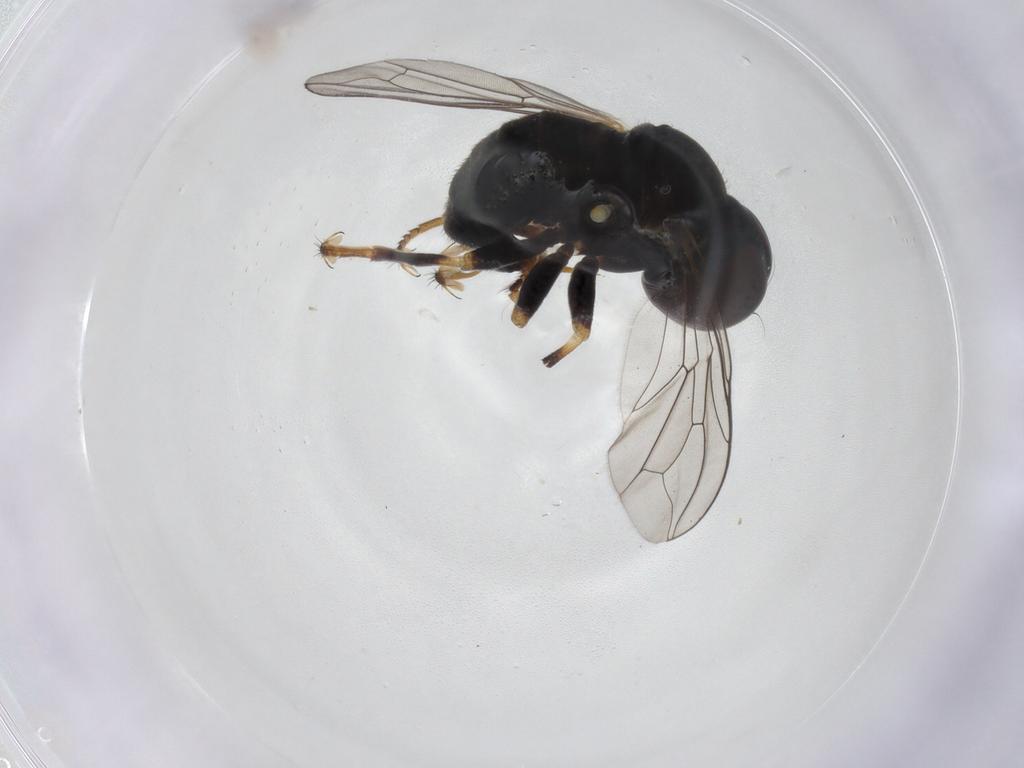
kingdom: Animalia
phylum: Arthropoda
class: Insecta
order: Diptera
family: Pipunculidae
